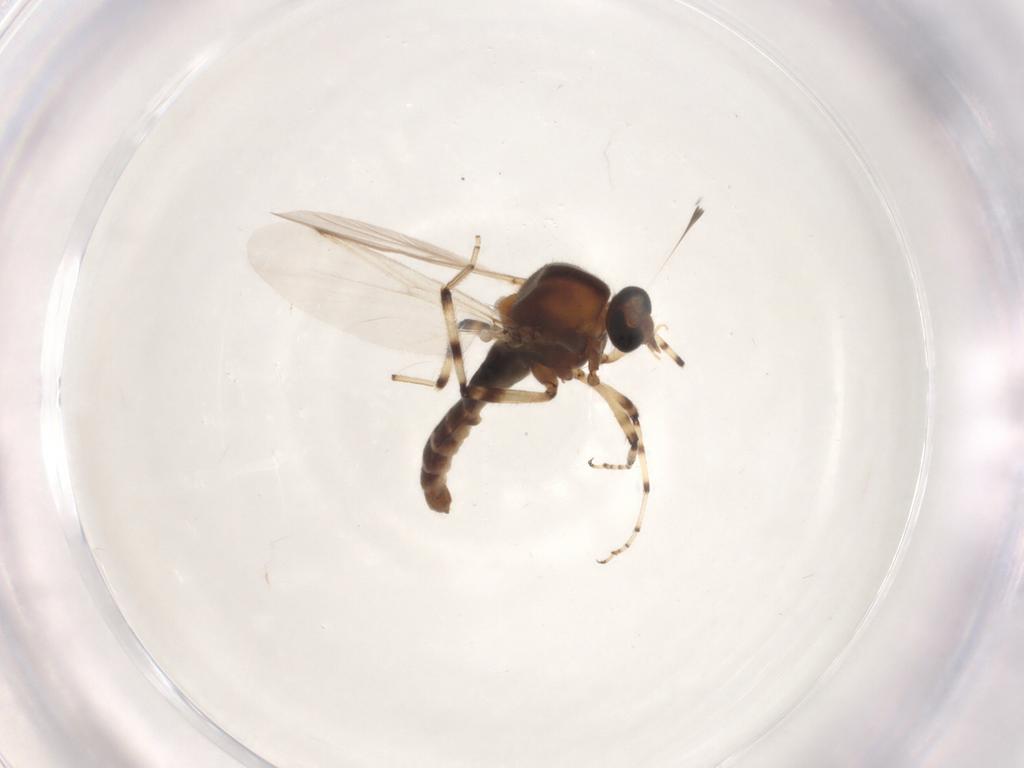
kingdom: Animalia
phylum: Arthropoda
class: Insecta
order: Diptera
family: Ceratopogonidae
